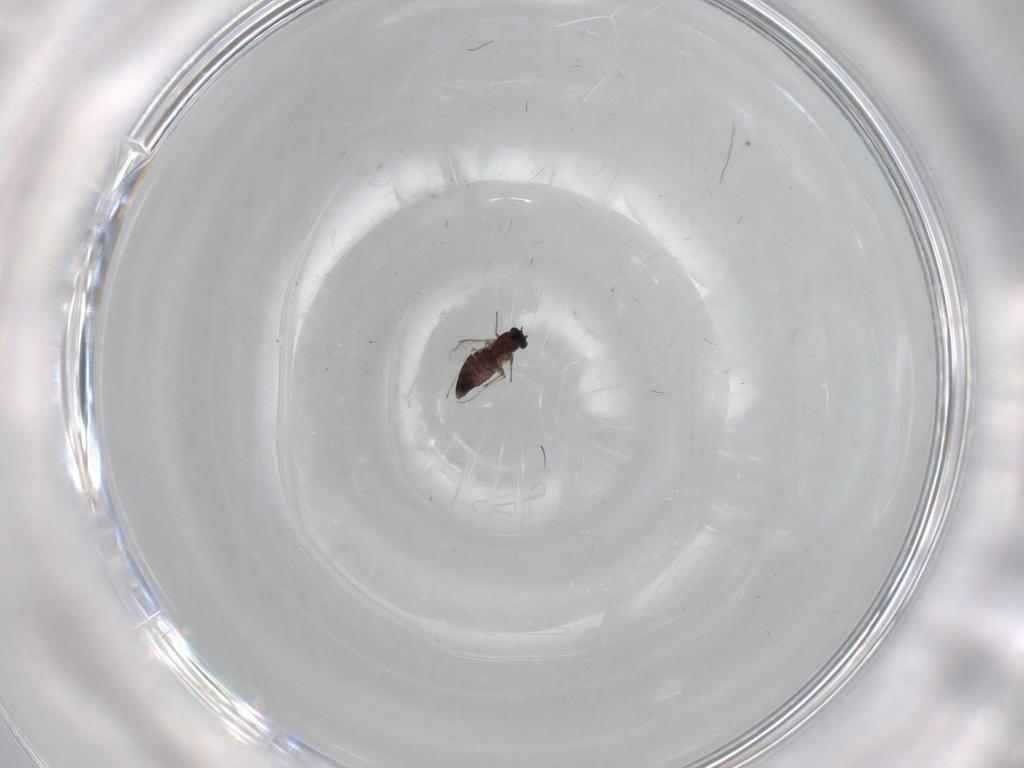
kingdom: Animalia
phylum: Arthropoda
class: Insecta
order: Diptera
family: Chironomidae
